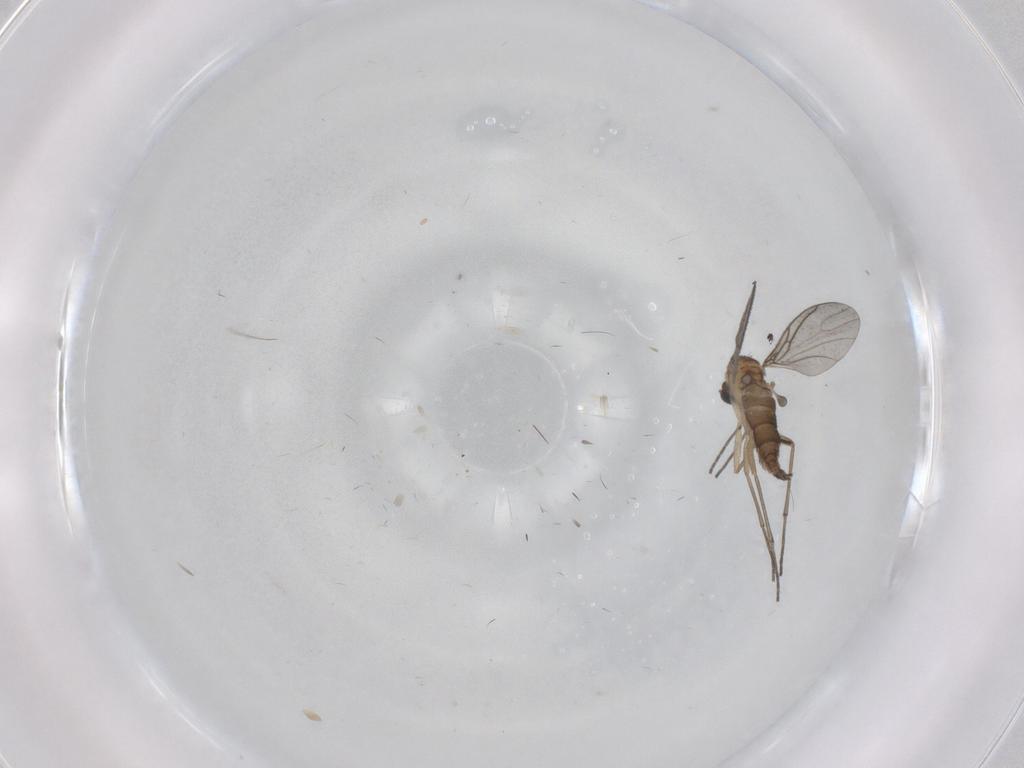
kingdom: Animalia
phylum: Arthropoda
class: Insecta
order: Diptera
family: Sciaridae
